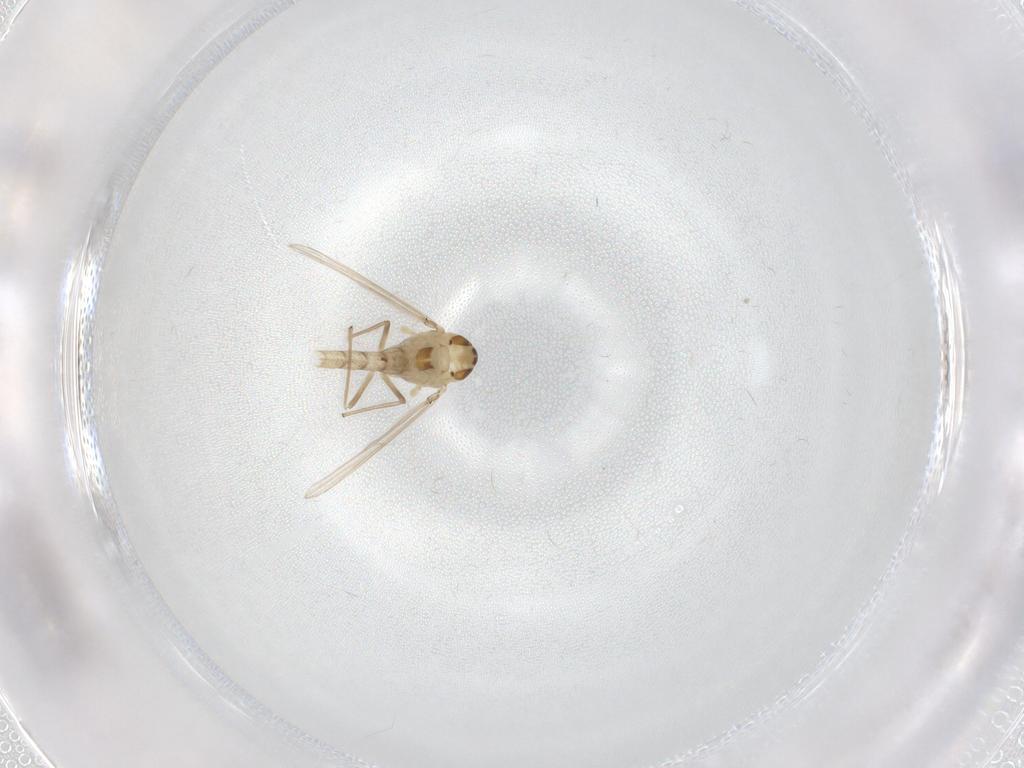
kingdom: Animalia
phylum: Arthropoda
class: Insecta
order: Diptera
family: Chironomidae
